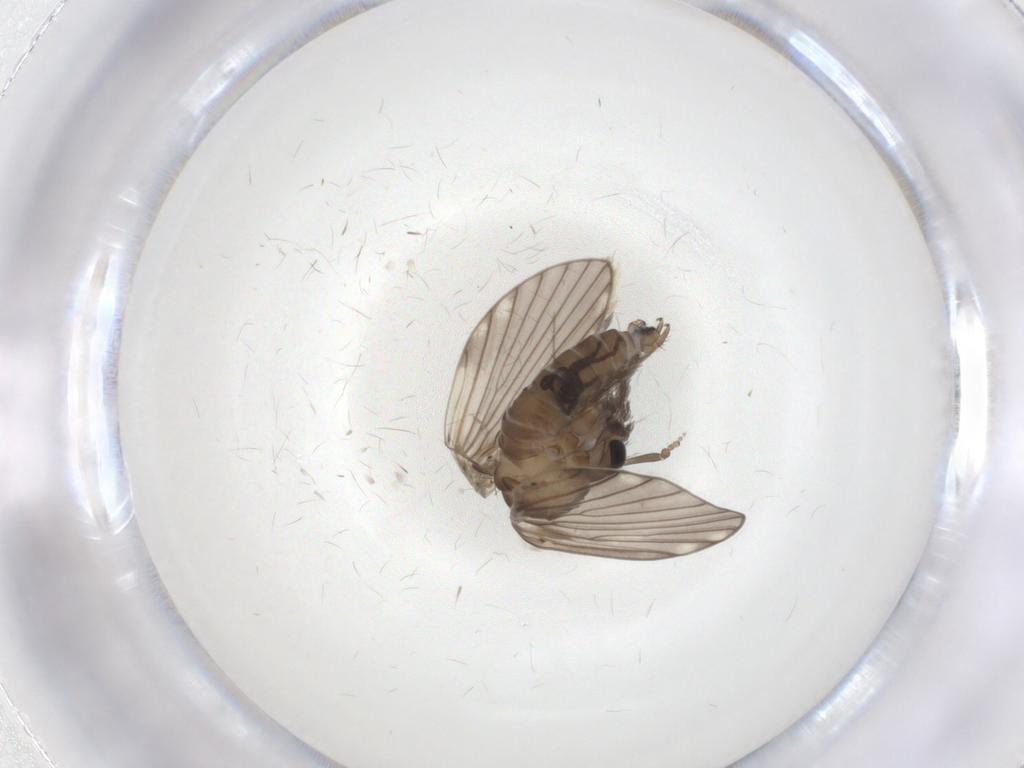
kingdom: Animalia
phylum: Arthropoda
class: Insecta
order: Diptera
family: Psychodidae
